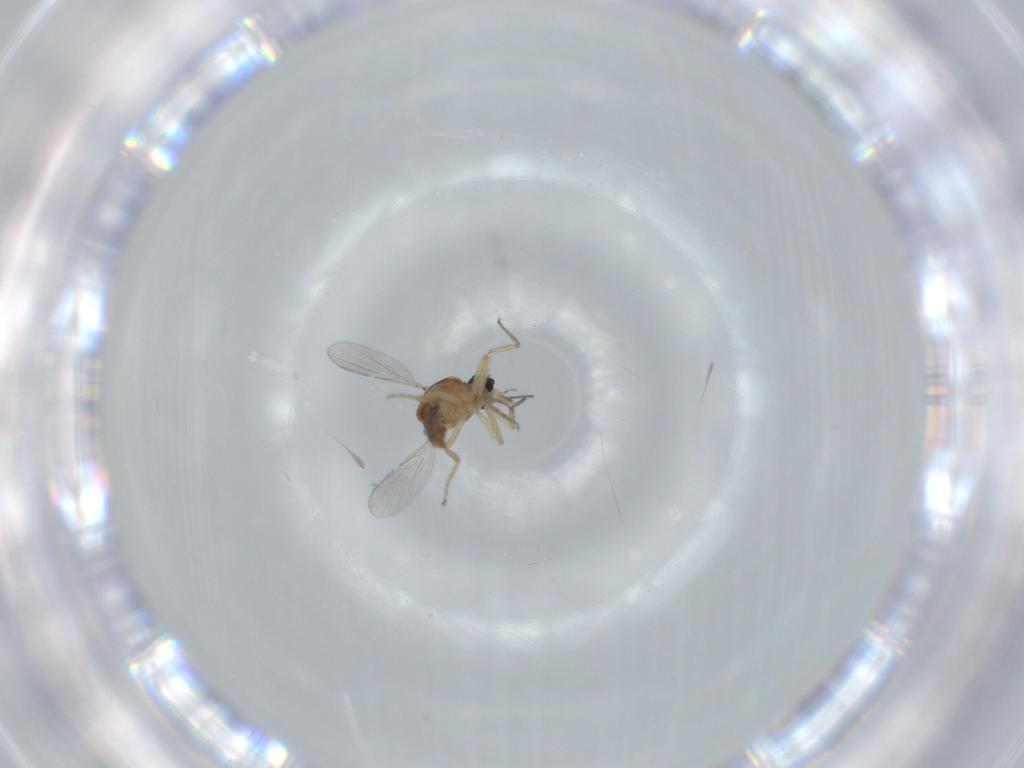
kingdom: Animalia
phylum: Arthropoda
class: Insecta
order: Diptera
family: Ceratopogonidae
